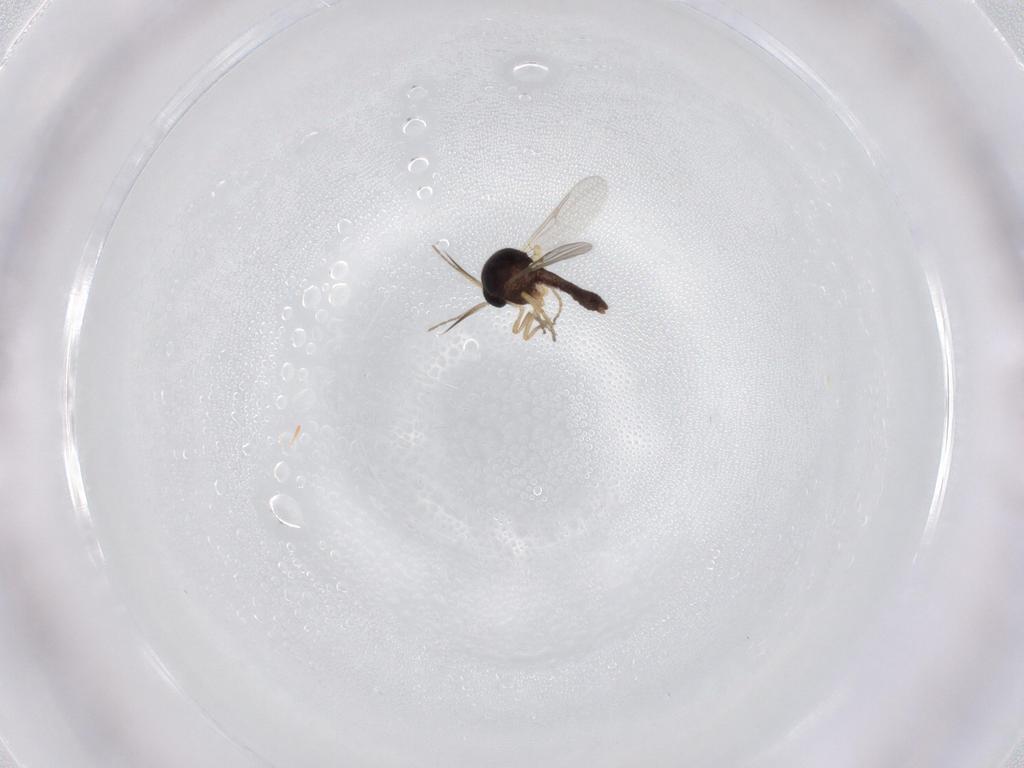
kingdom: Animalia
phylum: Arthropoda
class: Insecta
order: Diptera
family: Ceratopogonidae
